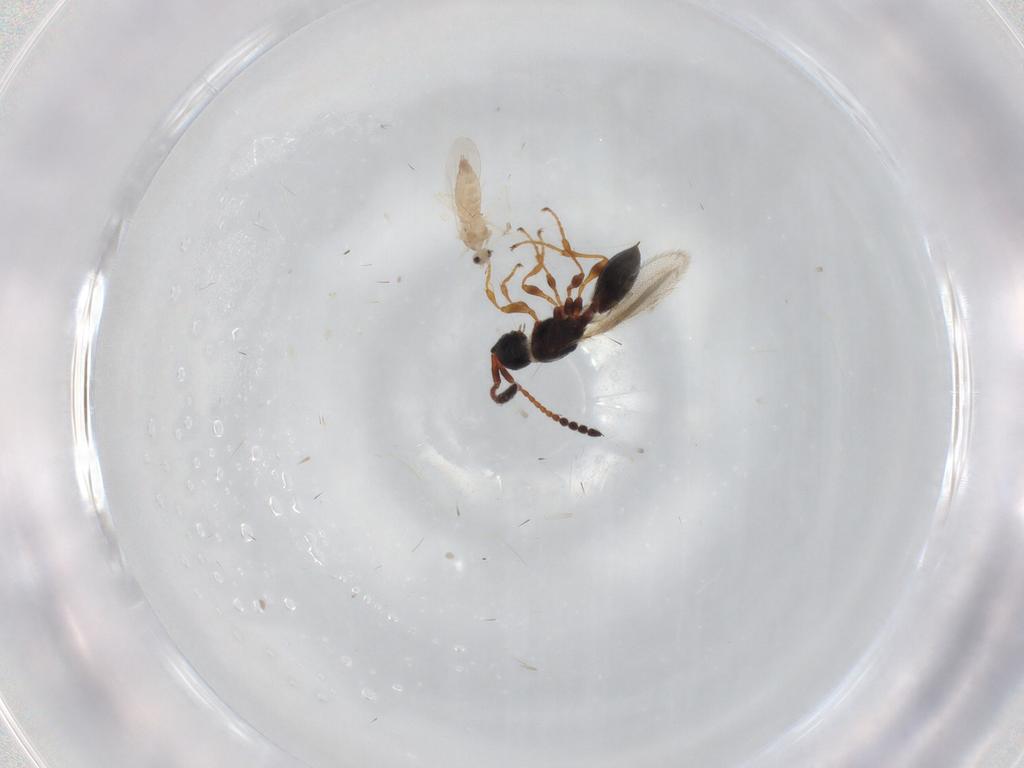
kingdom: Animalia
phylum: Arthropoda
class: Insecta
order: Hymenoptera
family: Diapriidae
